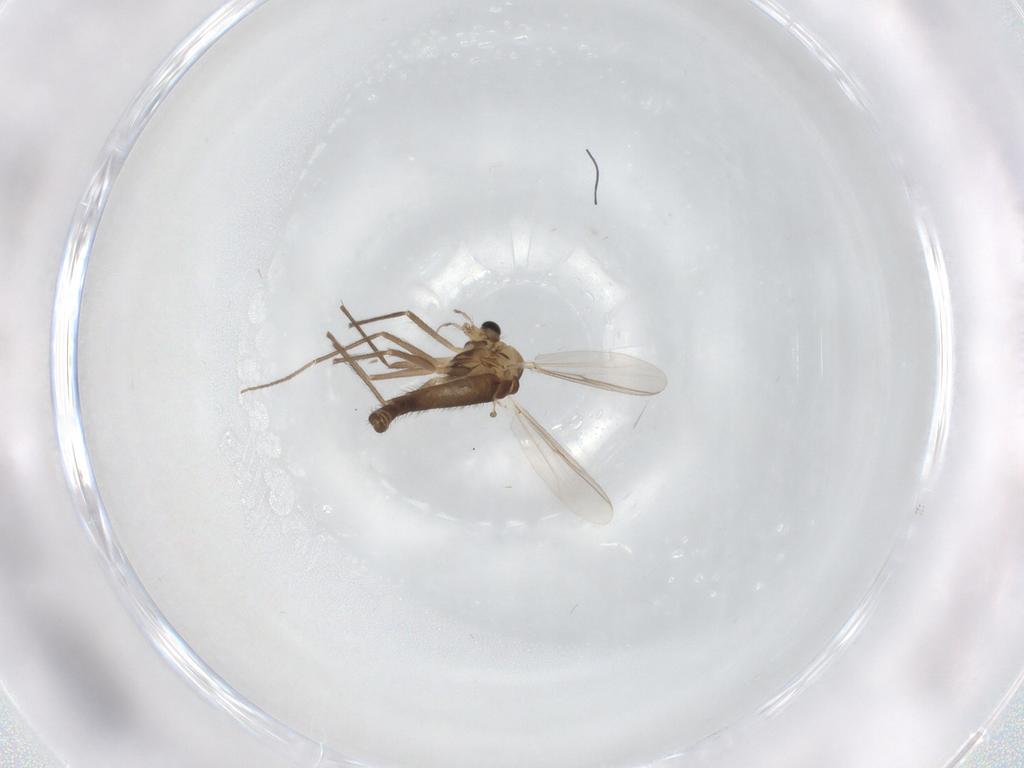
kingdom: Animalia
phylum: Arthropoda
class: Insecta
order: Diptera
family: Chironomidae
